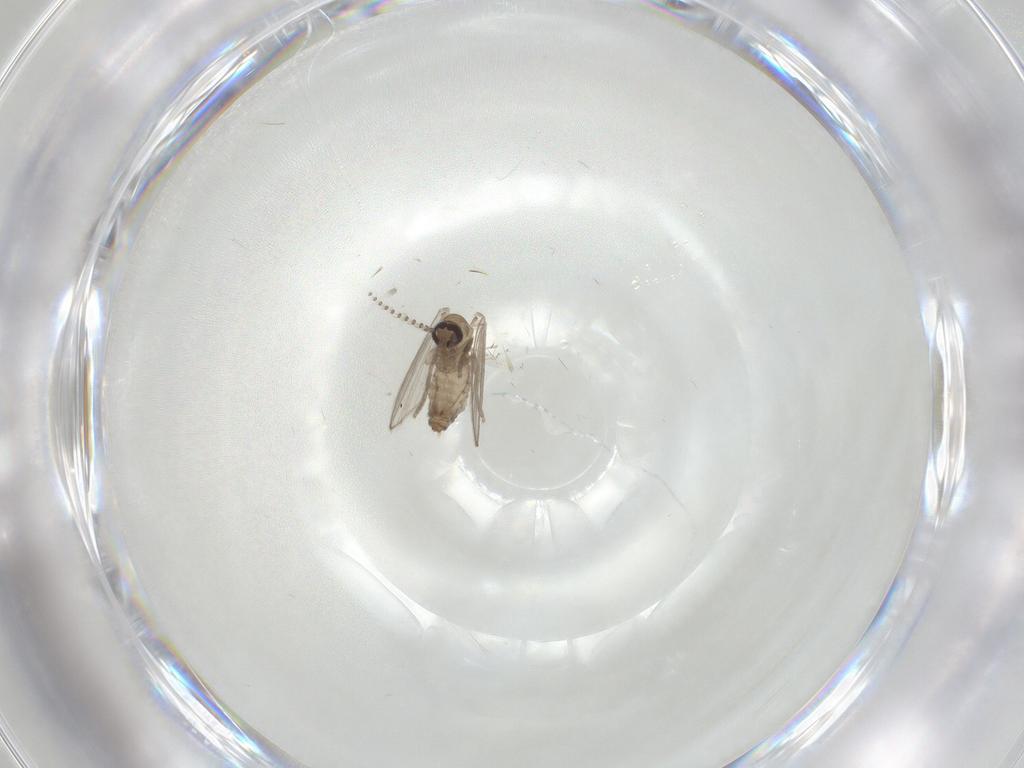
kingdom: Animalia
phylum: Arthropoda
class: Insecta
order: Diptera
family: Psychodidae
